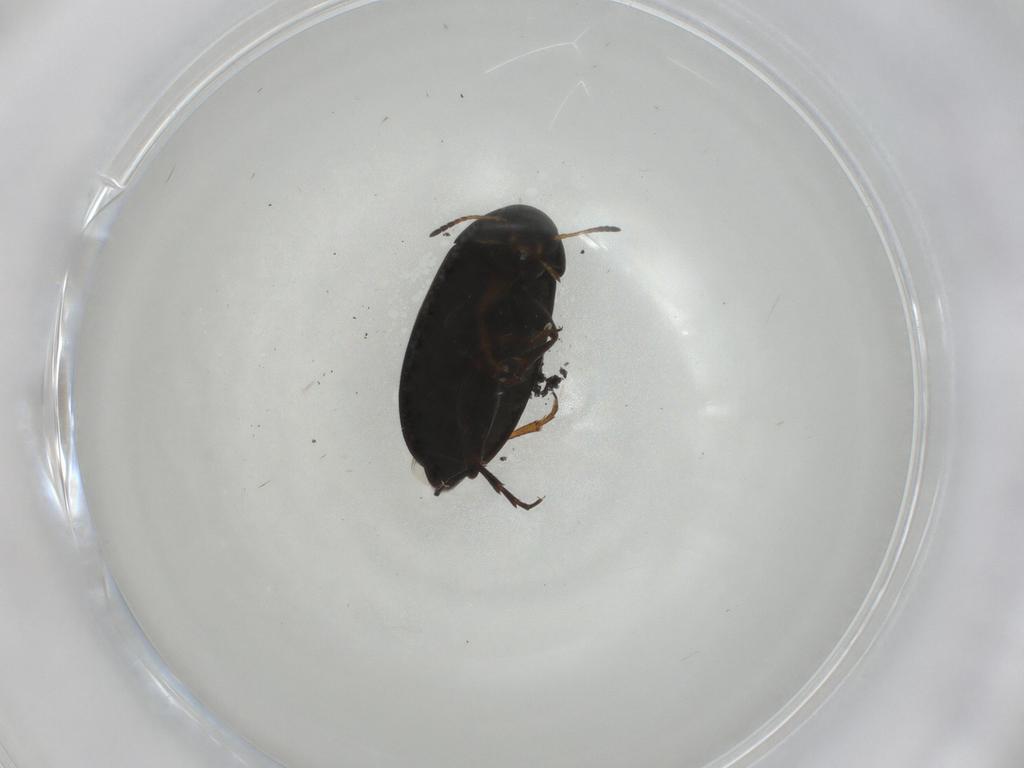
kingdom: Animalia
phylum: Arthropoda
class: Insecta
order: Coleoptera
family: Scraptiidae
